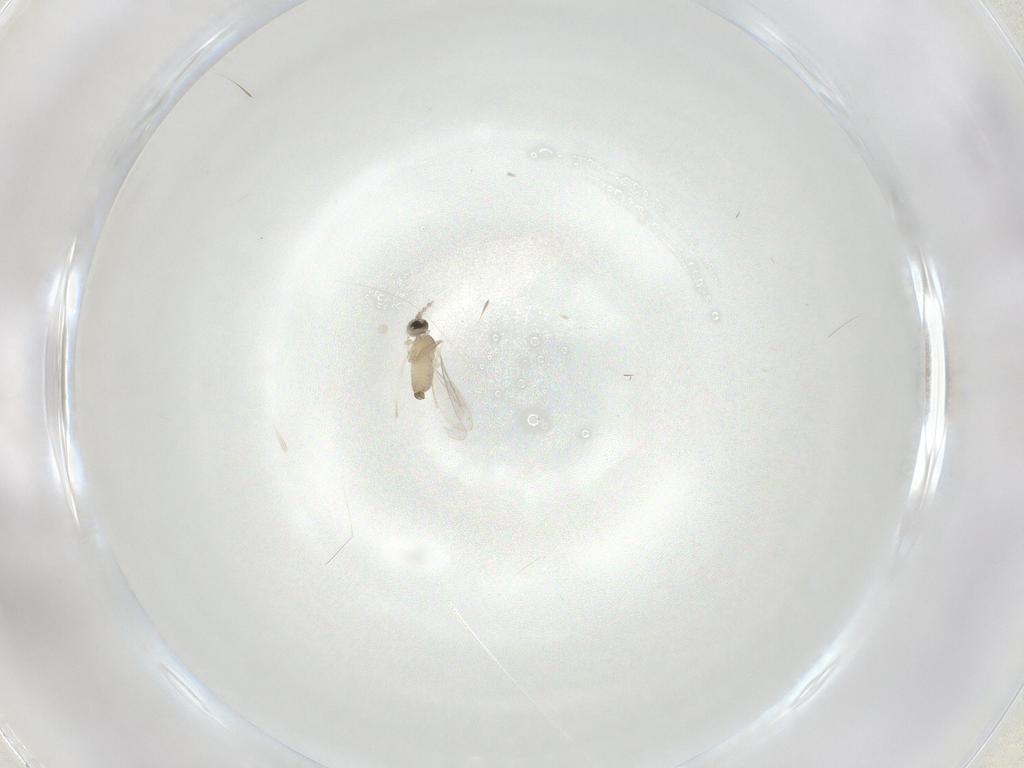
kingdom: Animalia
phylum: Arthropoda
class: Insecta
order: Diptera
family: Cecidomyiidae
